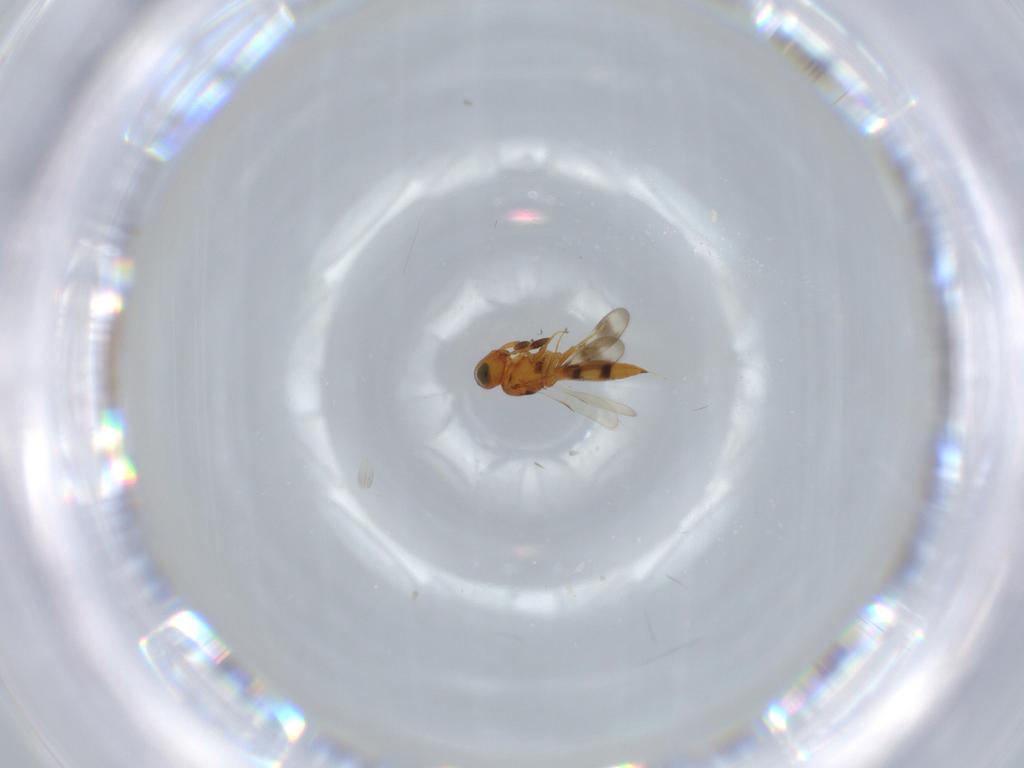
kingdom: Animalia
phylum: Arthropoda
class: Insecta
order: Hymenoptera
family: Scelionidae
